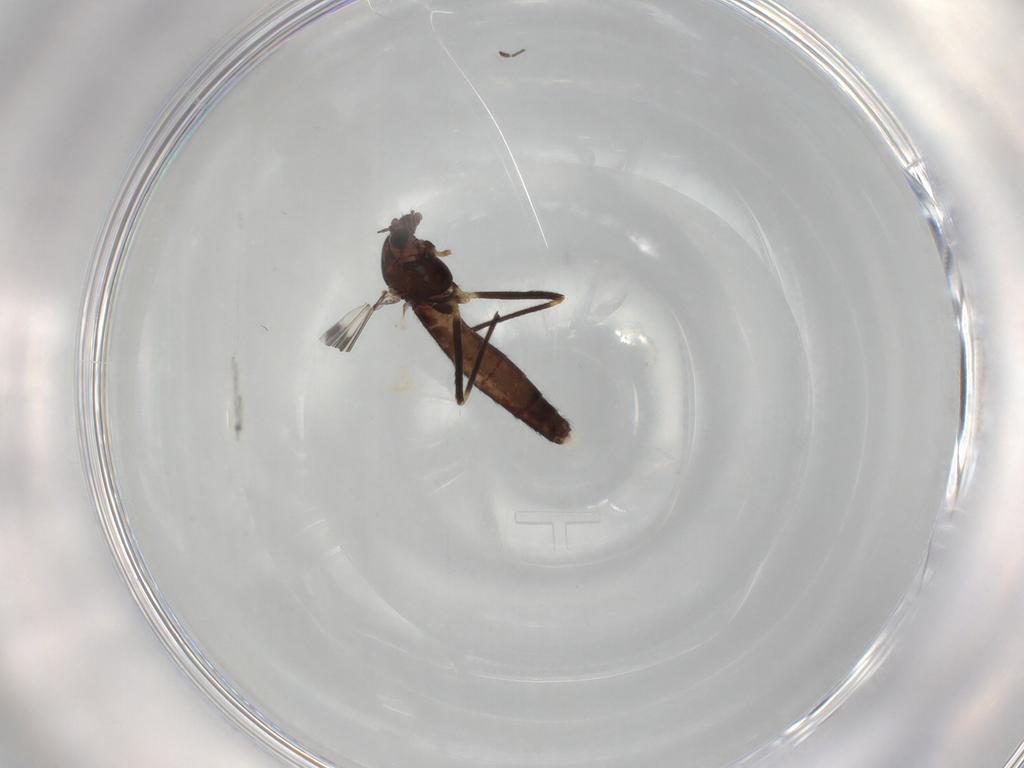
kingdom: Animalia
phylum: Arthropoda
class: Insecta
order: Diptera
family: Chironomidae
